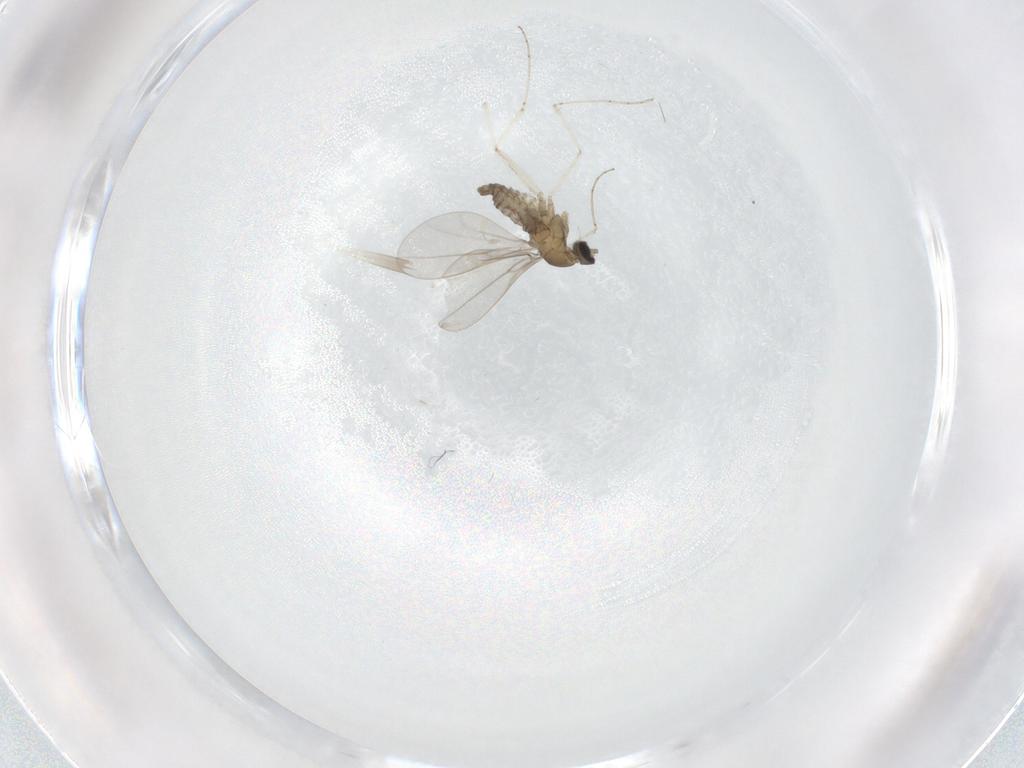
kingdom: Animalia
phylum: Arthropoda
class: Insecta
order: Diptera
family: Cecidomyiidae
